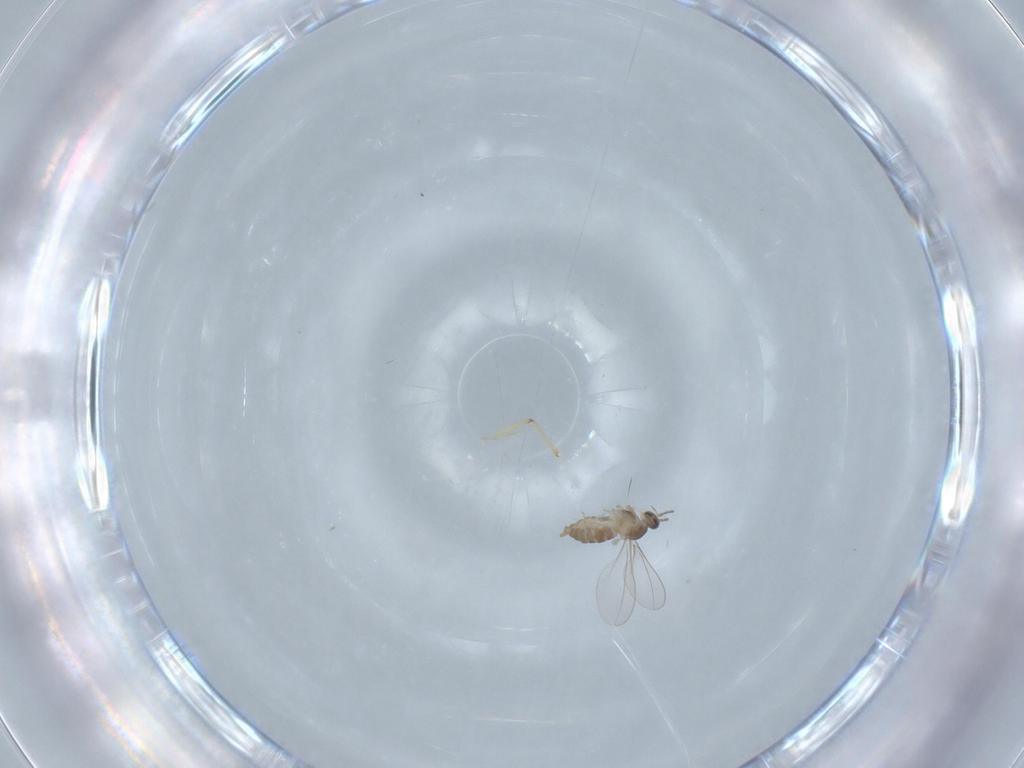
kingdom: Animalia
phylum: Arthropoda
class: Insecta
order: Diptera
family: Cecidomyiidae
